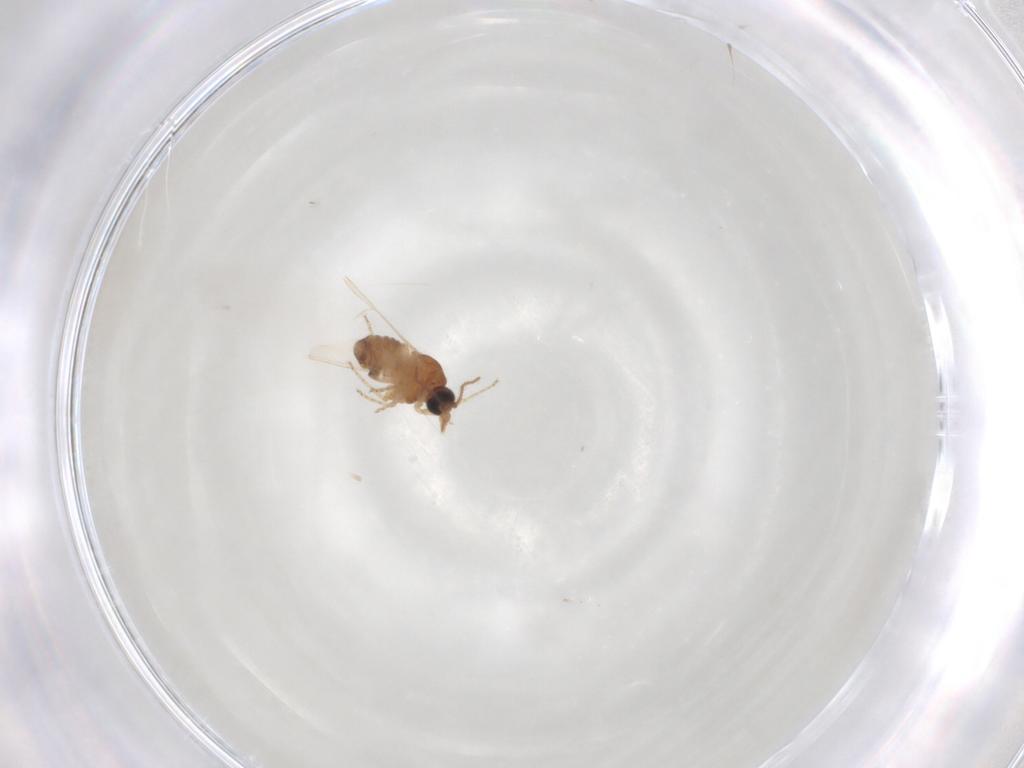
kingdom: Animalia
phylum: Arthropoda
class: Insecta
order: Diptera
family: Ceratopogonidae
